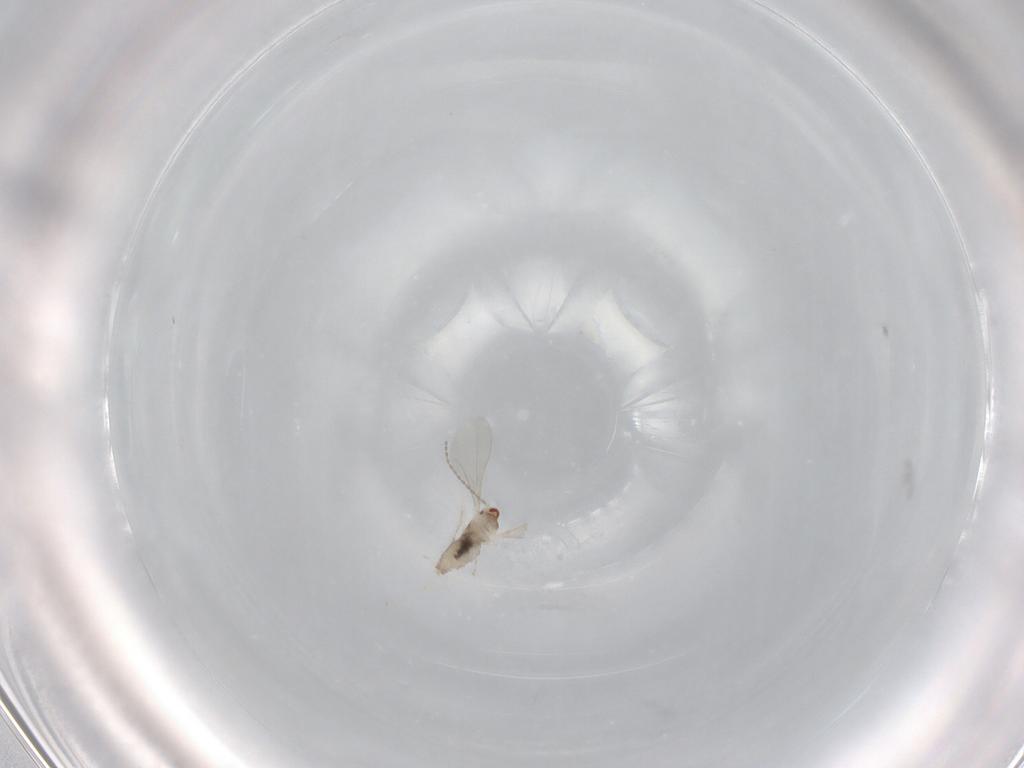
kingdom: Animalia
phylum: Arthropoda
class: Insecta
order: Diptera
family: Cecidomyiidae
